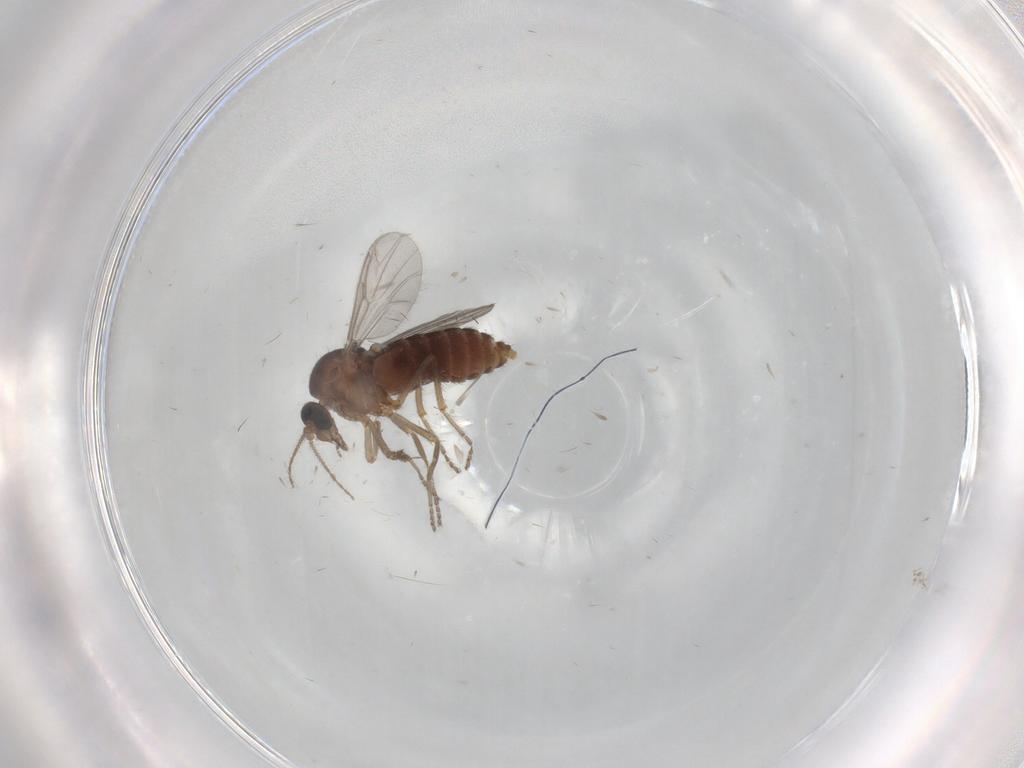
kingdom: Animalia
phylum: Arthropoda
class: Insecta
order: Diptera
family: Ceratopogonidae
